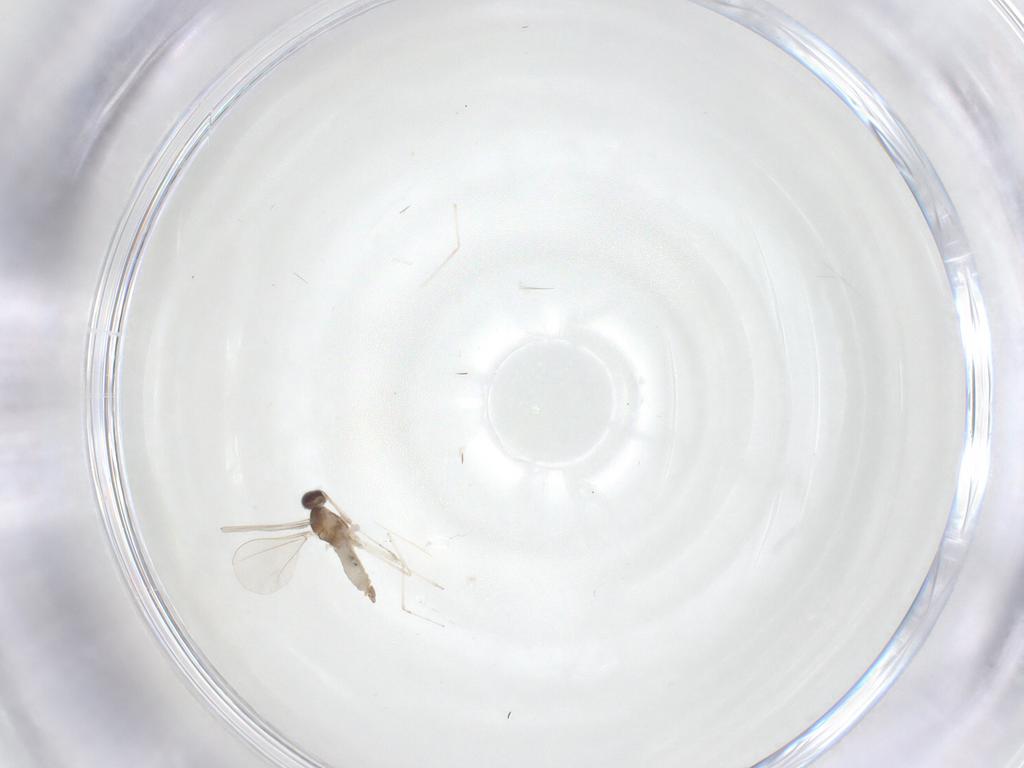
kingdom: Animalia
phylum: Arthropoda
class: Insecta
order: Diptera
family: Cecidomyiidae
